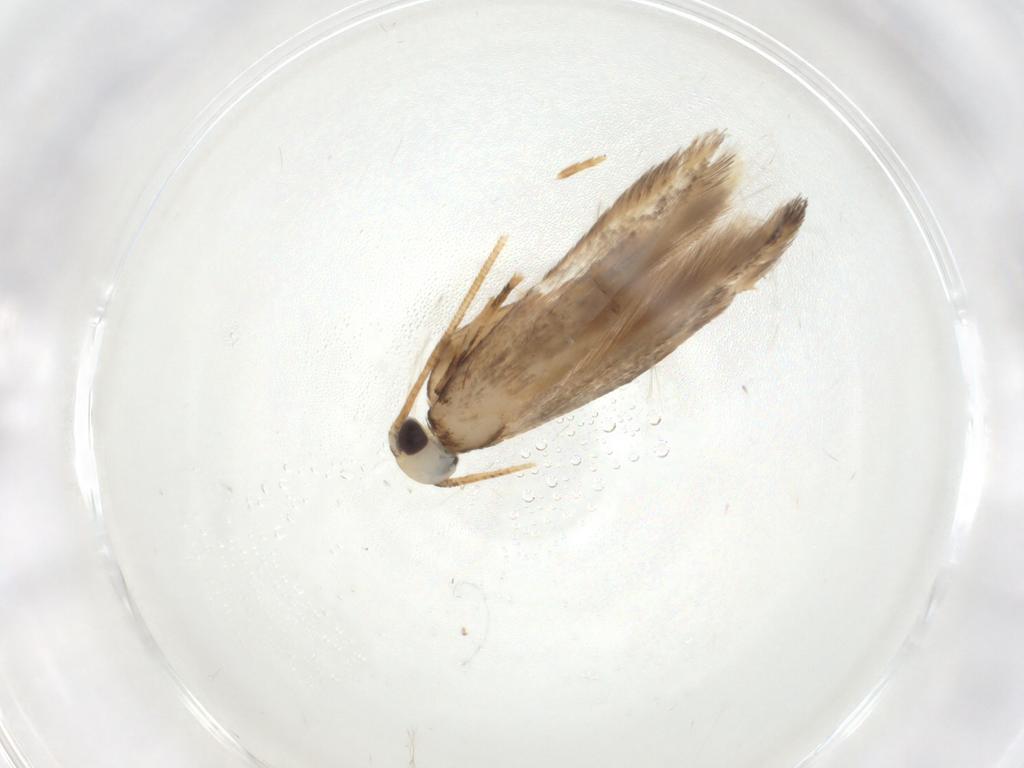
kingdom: Animalia
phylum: Arthropoda
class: Insecta
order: Lepidoptera
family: Coleophoridae
